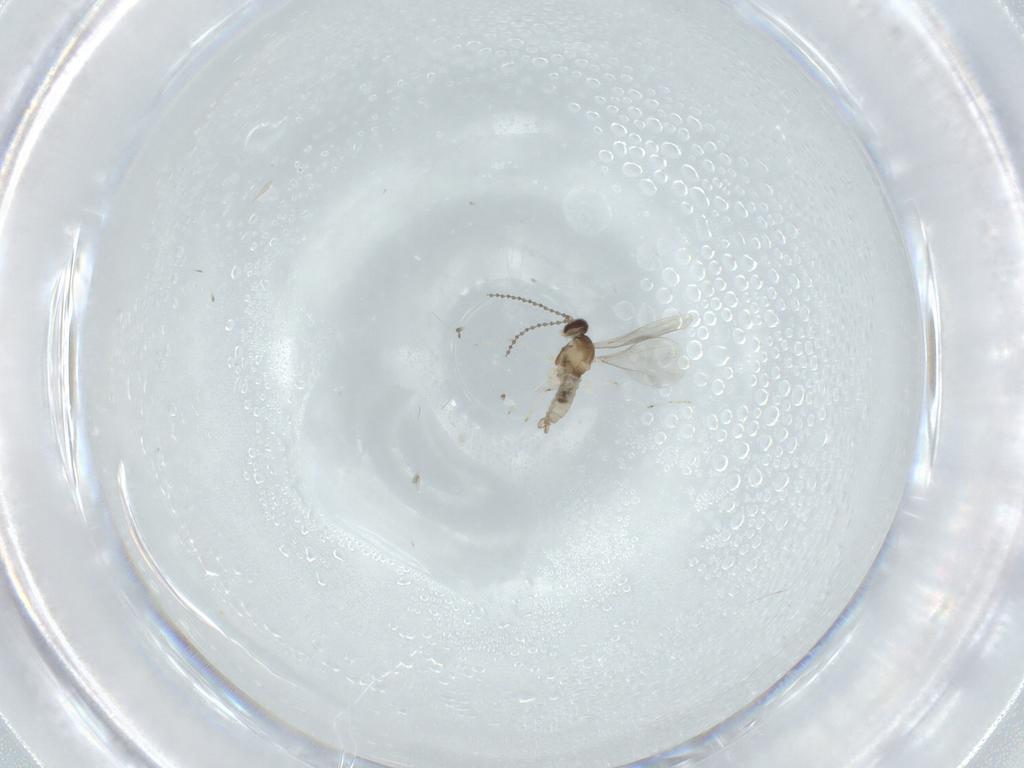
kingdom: Animalia
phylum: Arthropoda
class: Insecta
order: Diptera
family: Cecidomyiidae
